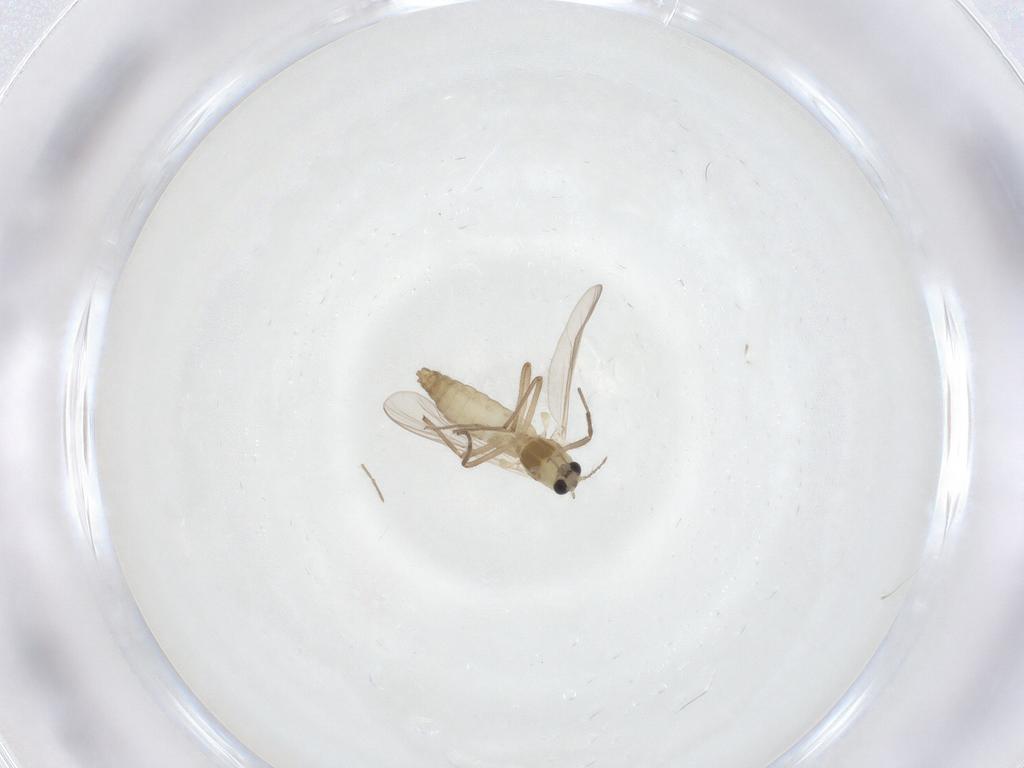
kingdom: Animalia
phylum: Arthropoda
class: Insecta
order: Diptera
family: Chironomidae
